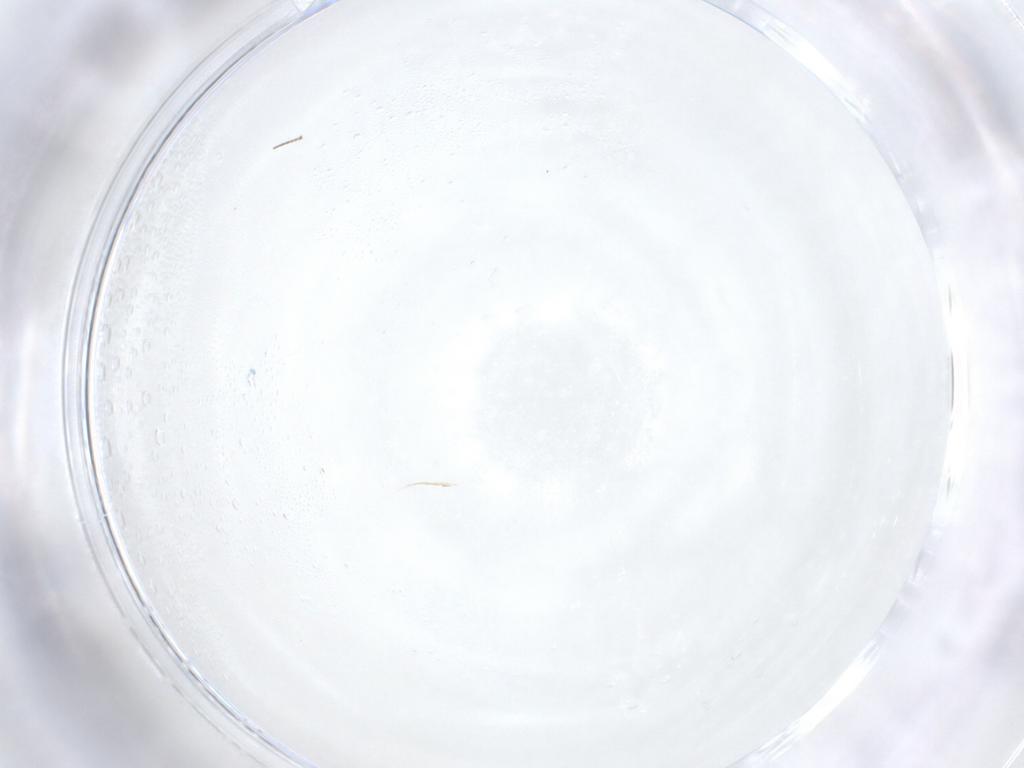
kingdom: Animalia
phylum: Arthropoda
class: Insecta
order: Diptera
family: Cecidomyiidae
